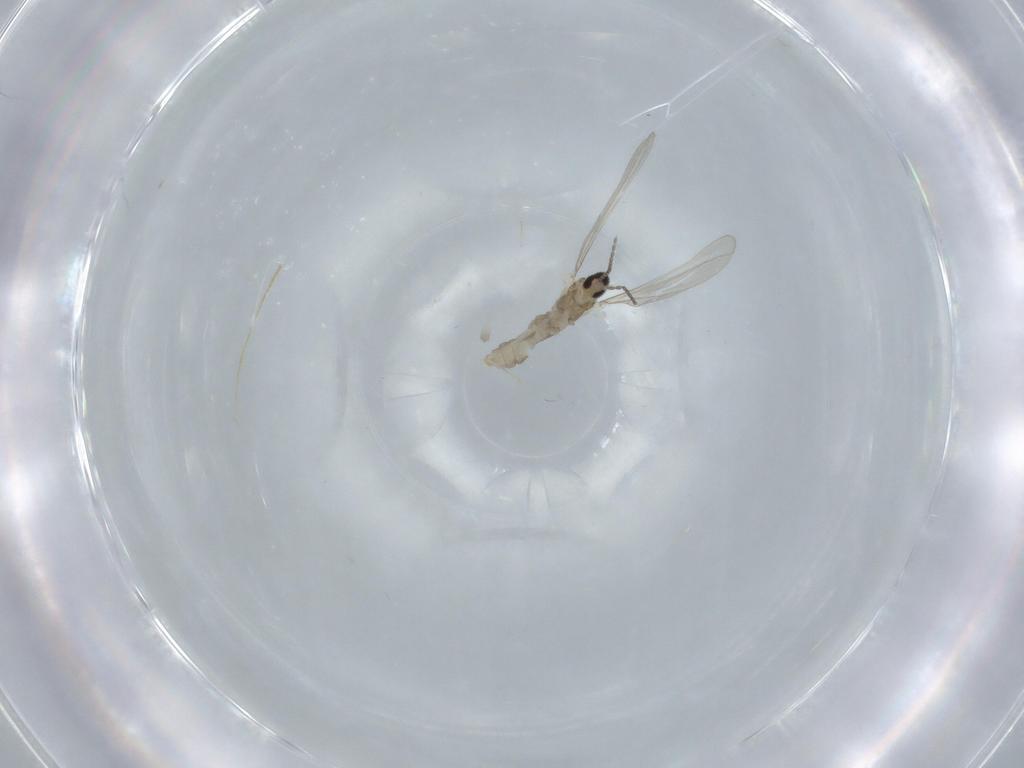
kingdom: Animalia
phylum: Arthropoda
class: Insecta
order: Diptera
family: Cecidomyiidae
